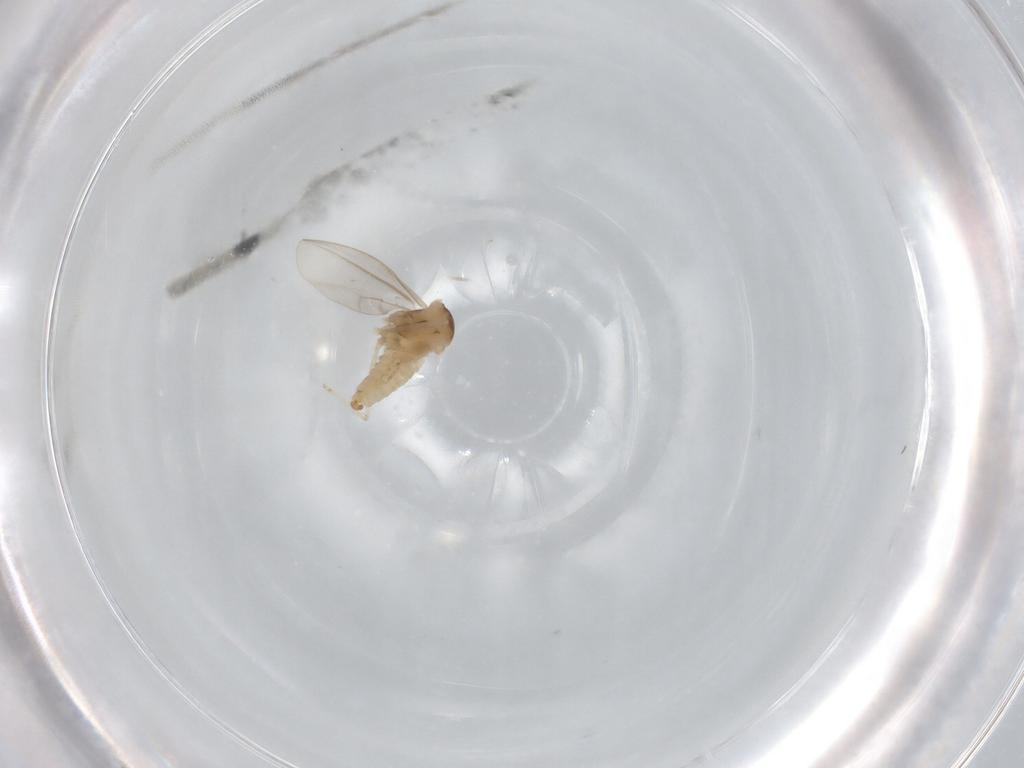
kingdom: Animalia
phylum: Arthropoda
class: Insecta
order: Diptera
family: Cecidomyiidae
